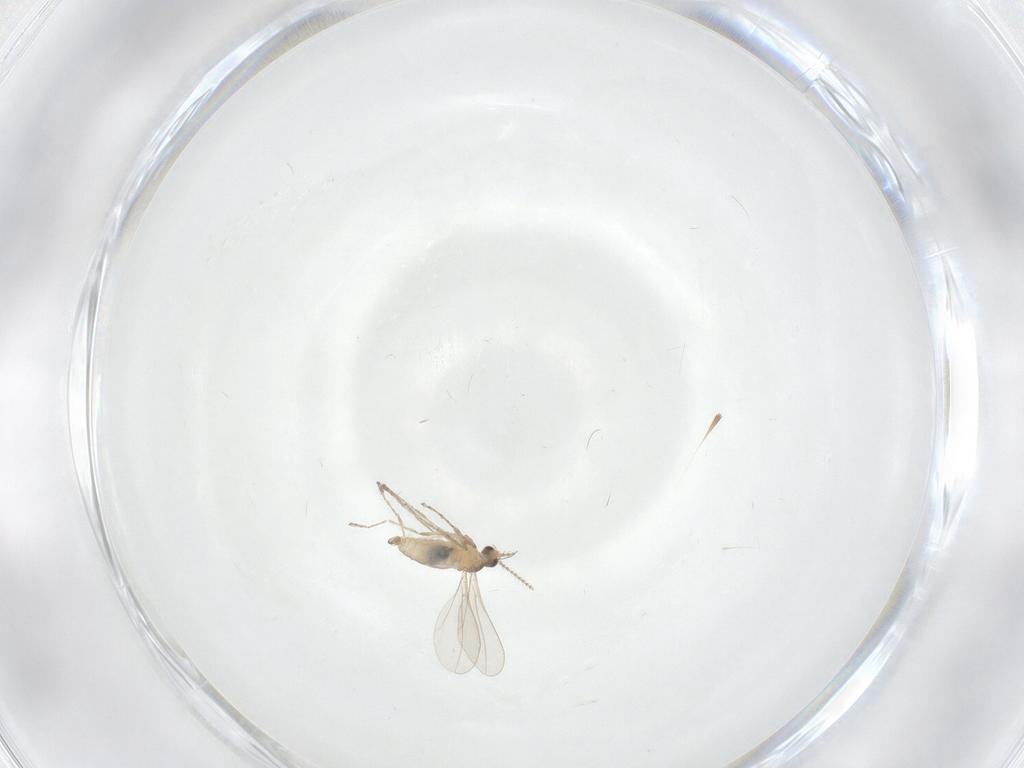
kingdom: Animalia
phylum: Arthropoda
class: Insecta
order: Diptera
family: Cecidomyiidae
